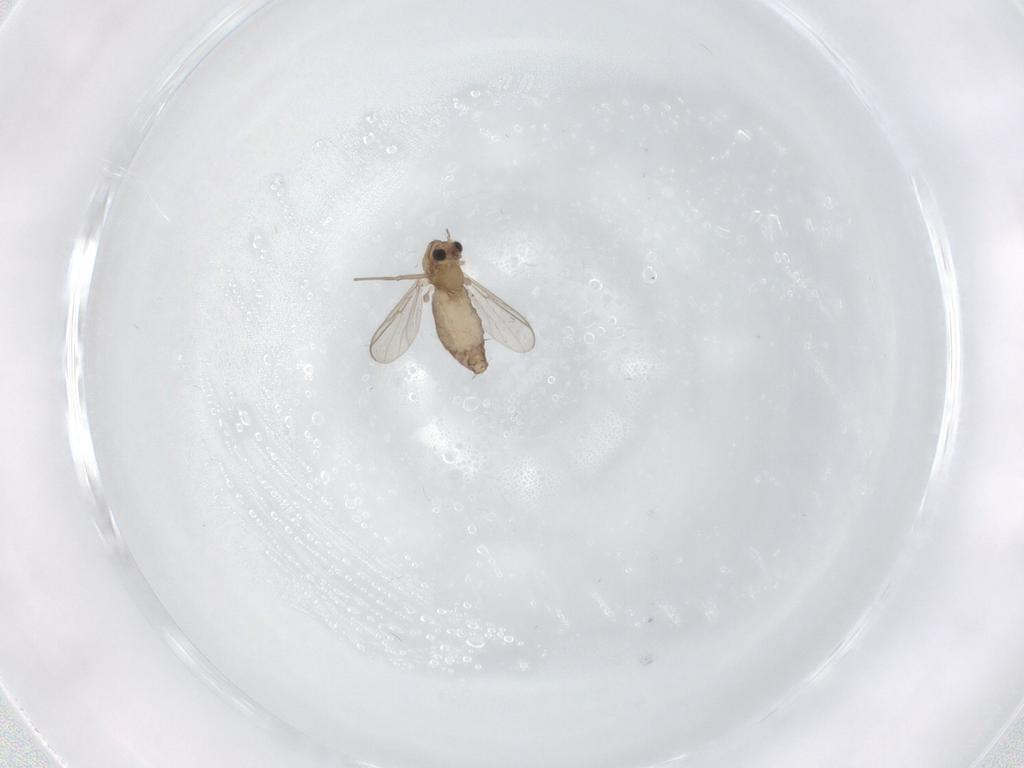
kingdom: Animalia
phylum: Arthropoda
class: Insecta
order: Diptera
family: Chironomidae
